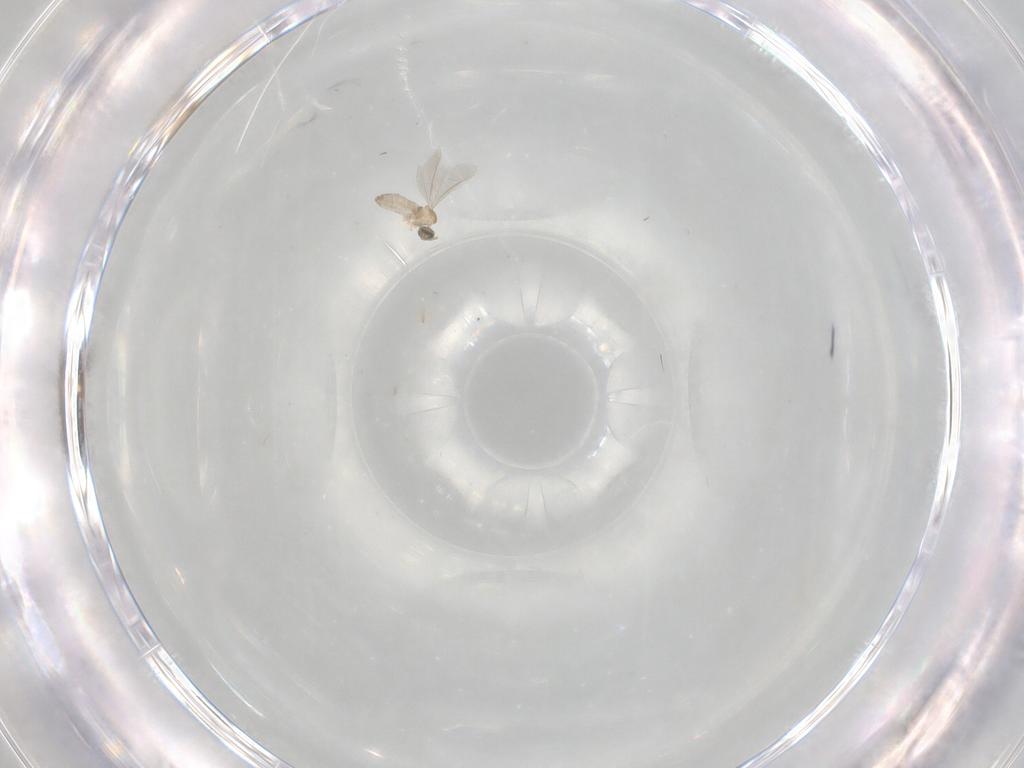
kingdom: Animalia
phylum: Arthropoda
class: Insecta
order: Diptera
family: Cecidomyiidae
